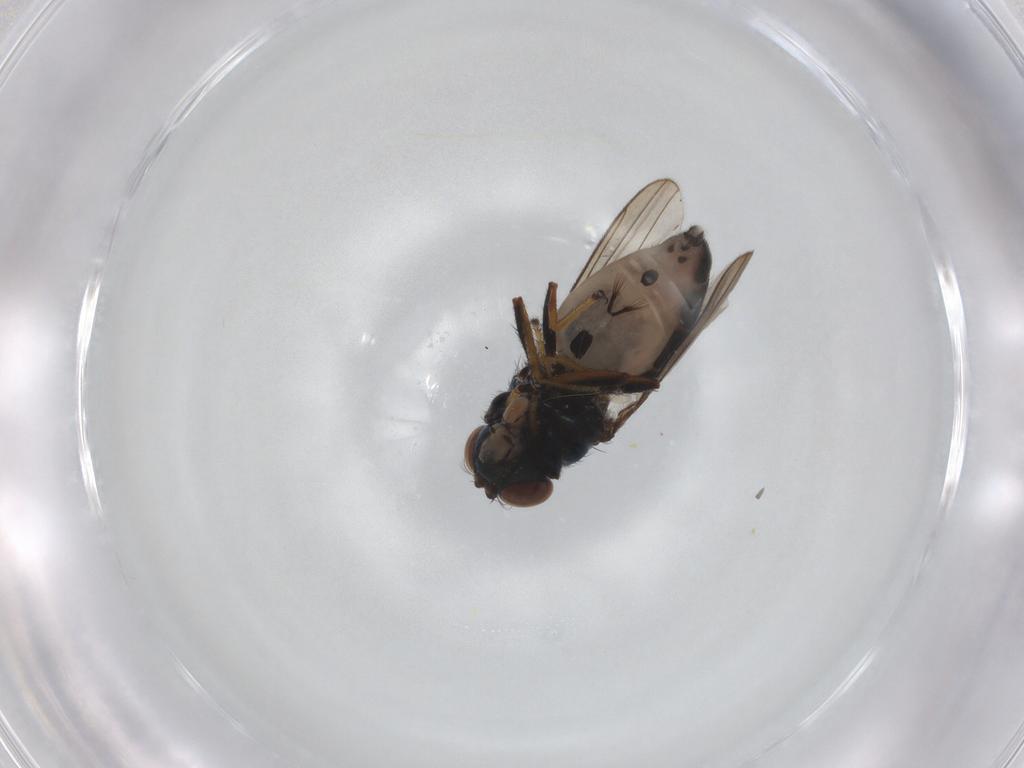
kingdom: Animalia
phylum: Arthropoda
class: Insecta
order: Diptera
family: Ephydridae
